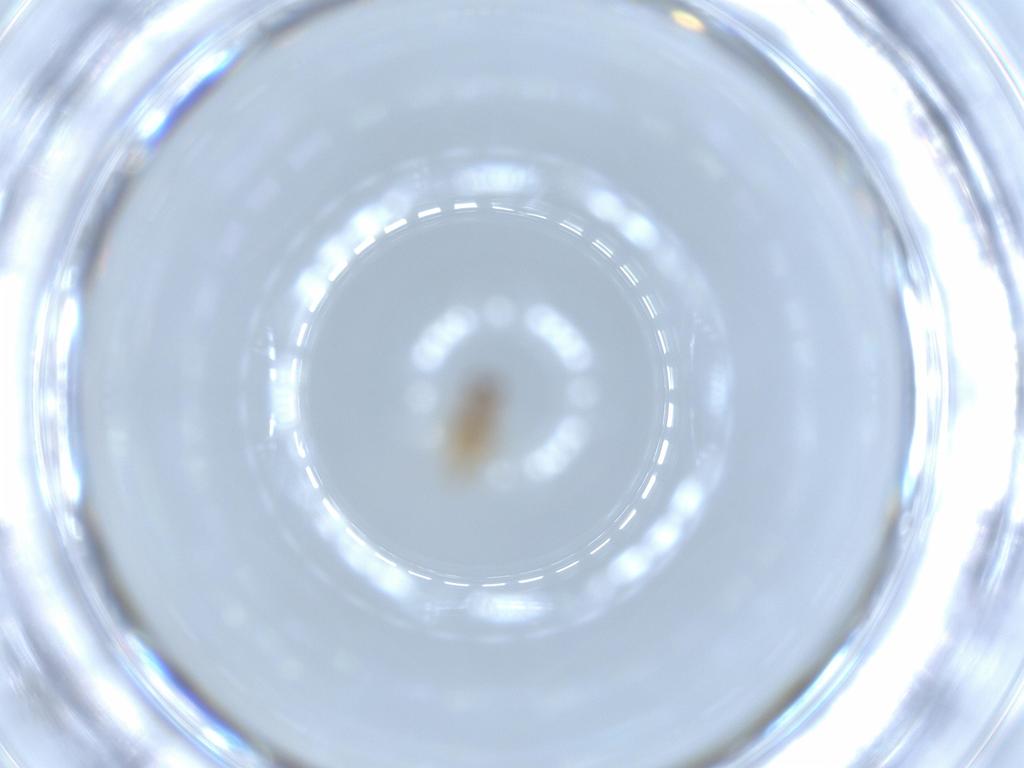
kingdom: Animalia
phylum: Arthropoda
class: Insecta
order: Diptera
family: Ceratopogonidae
